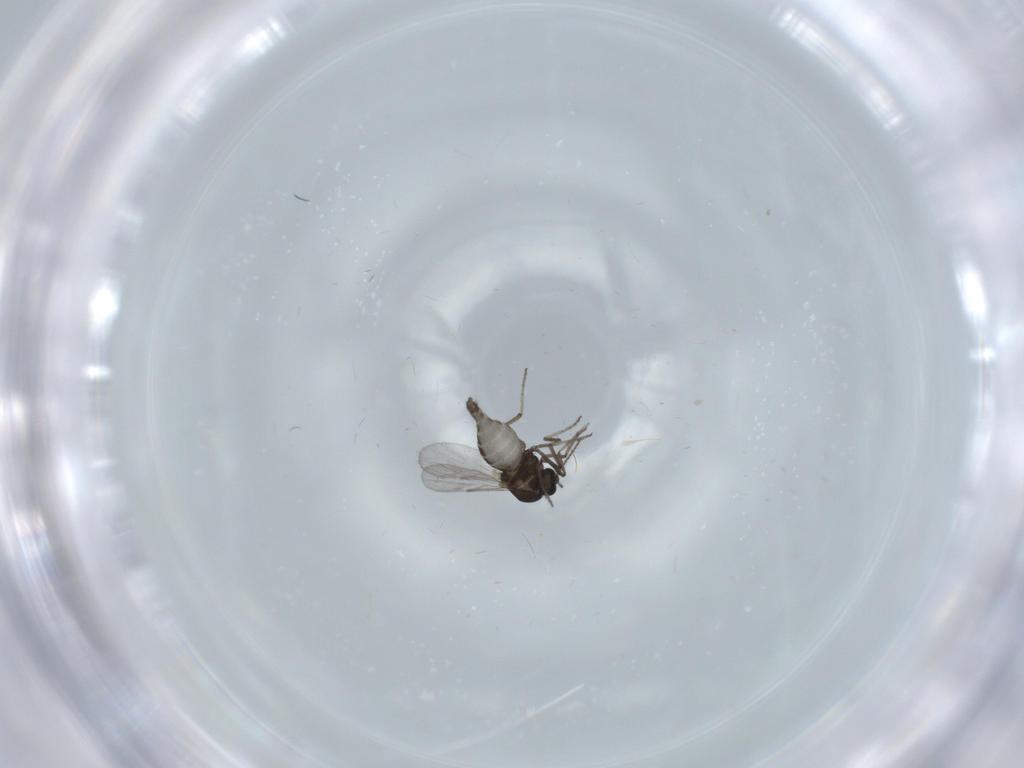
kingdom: Animalia
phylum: Arthropoda
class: Insecta
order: Diptera
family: Ceratopogonidae
